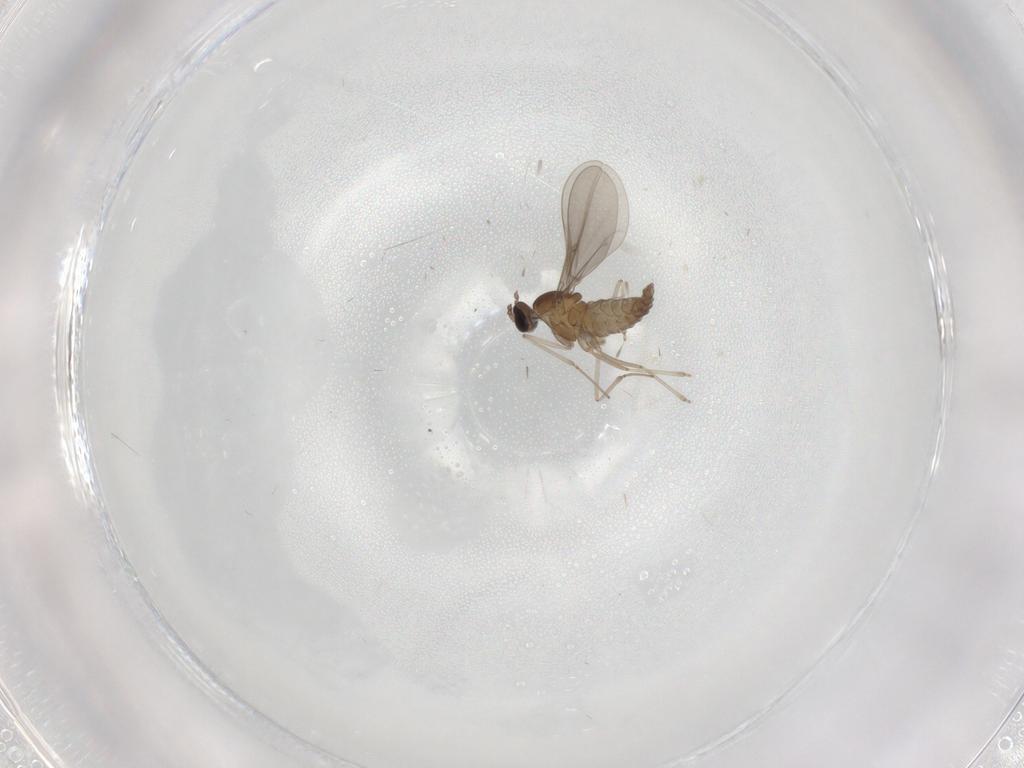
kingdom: Animalia
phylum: Arthropoda
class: Insecta
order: Diptera
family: Cecidomyiidae
